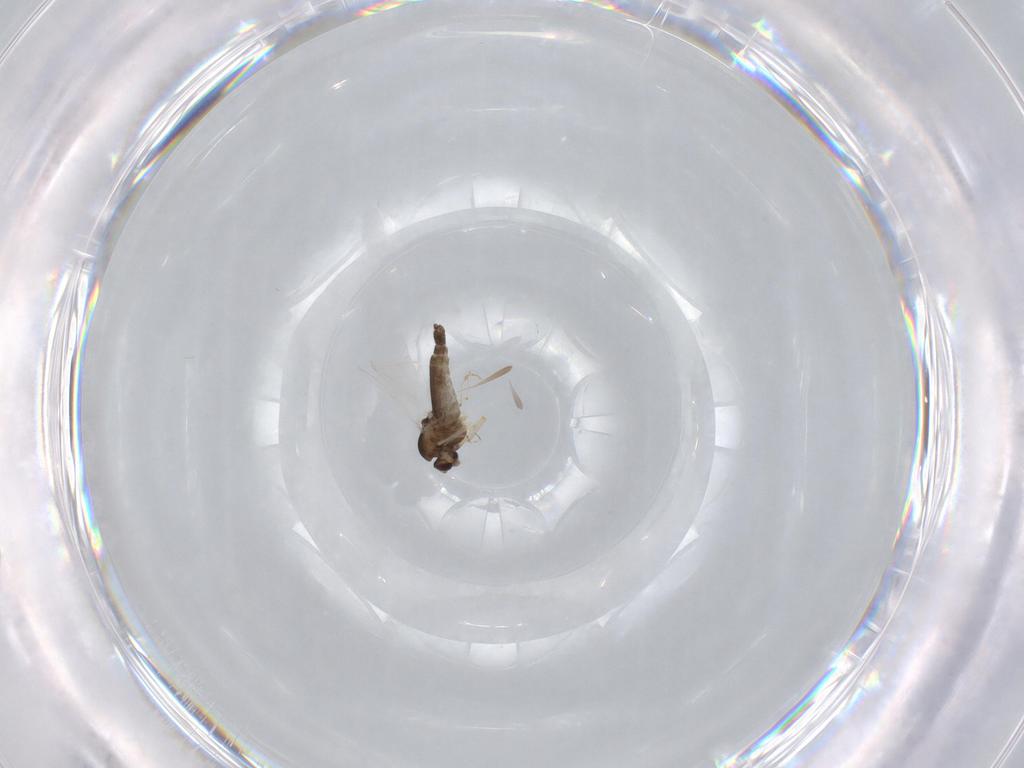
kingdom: Animalia
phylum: Arthropoda
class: Insecta
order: Diptera
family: Chironomidae
